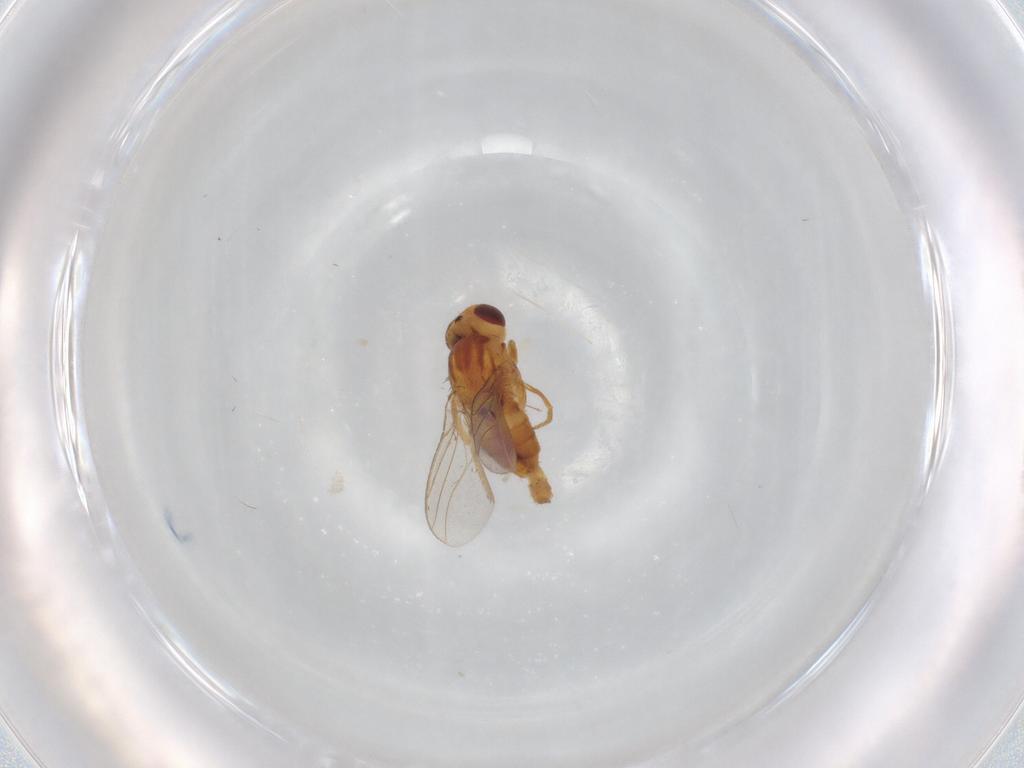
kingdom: Animalia
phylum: Arthropoda
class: Insecta
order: Diptera
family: Chloropidae
